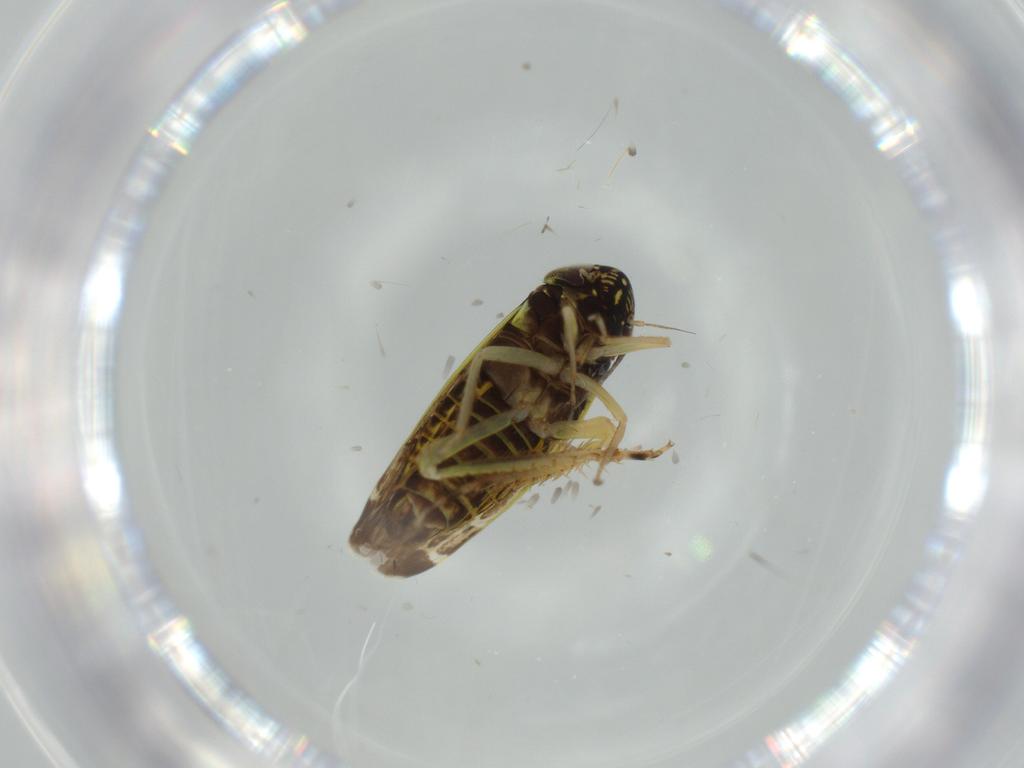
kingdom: Animalia
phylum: Arthropoda
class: Insecta
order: Hemiptera
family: Cicadellidae
